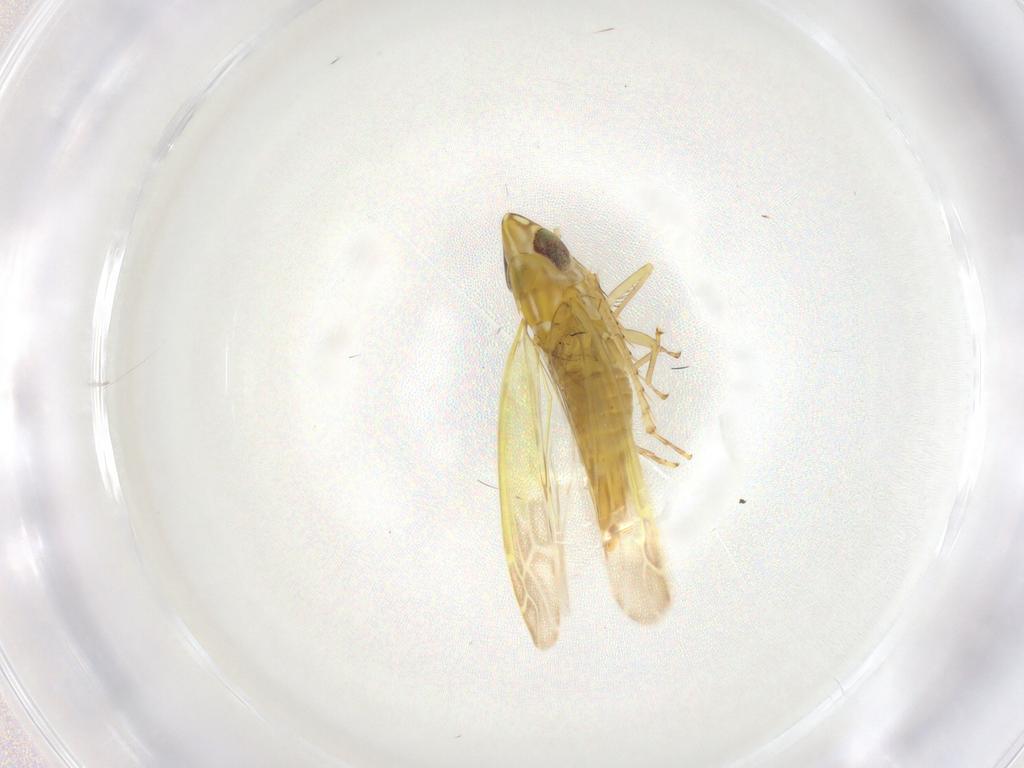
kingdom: Animalia
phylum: Arthropoda
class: Insecta
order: Hemiptera
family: Cicadellidae
